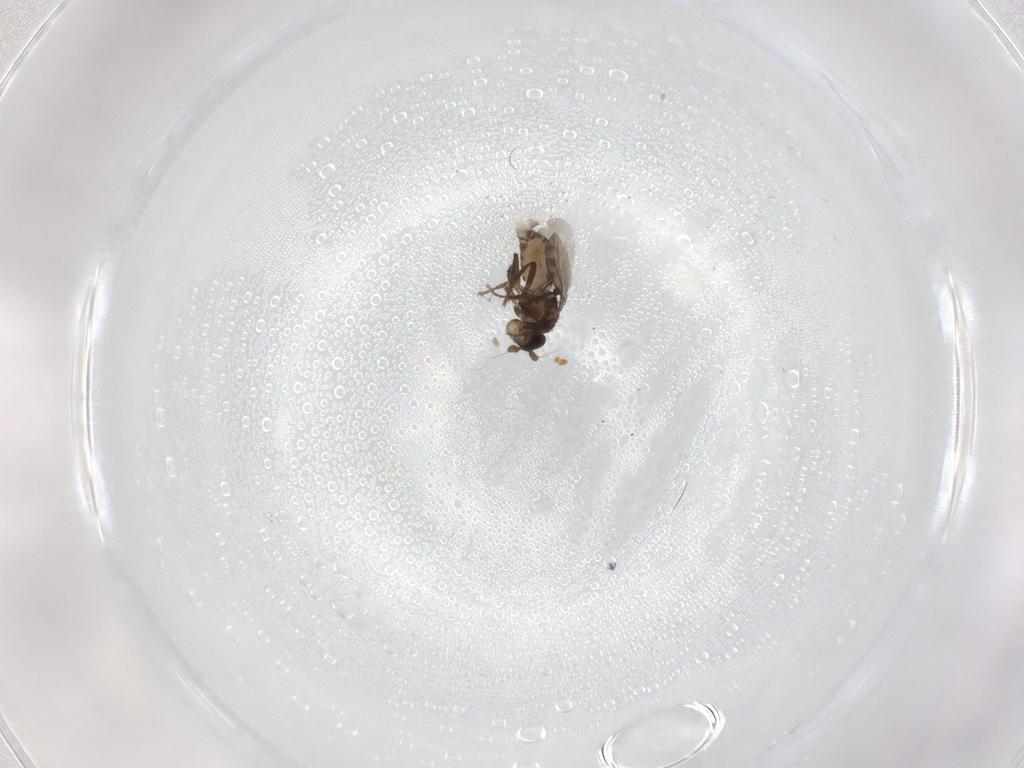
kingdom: Animalia
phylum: Arthropoda
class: Insecta
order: Diptera
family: Sphaeroceridae
